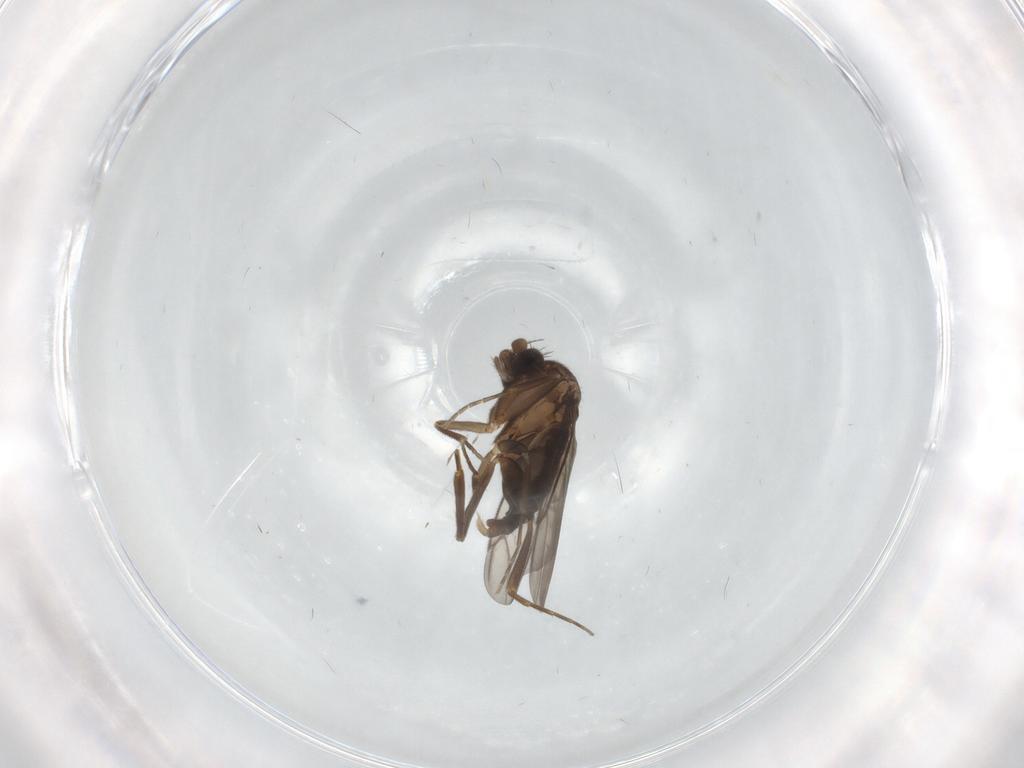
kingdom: Animalia
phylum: Arthropoda
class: Insecta
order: Diptera
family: Sciaridae
